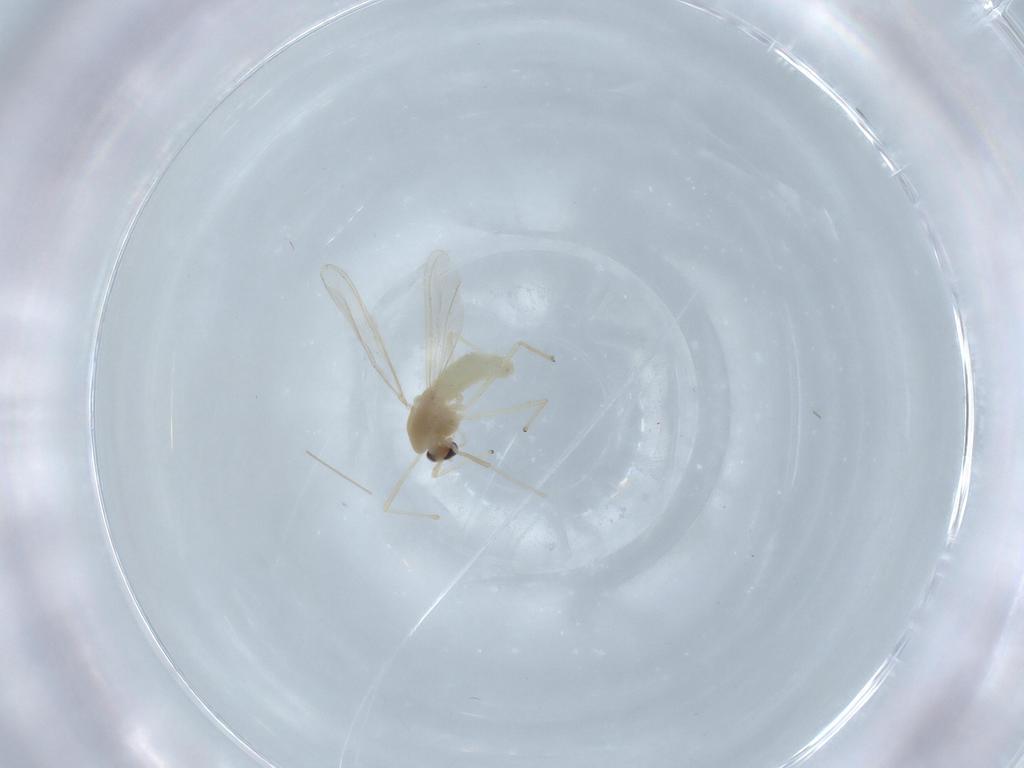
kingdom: Animalia
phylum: Arthropoda
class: Insecta
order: Diptera
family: Chironomidae
